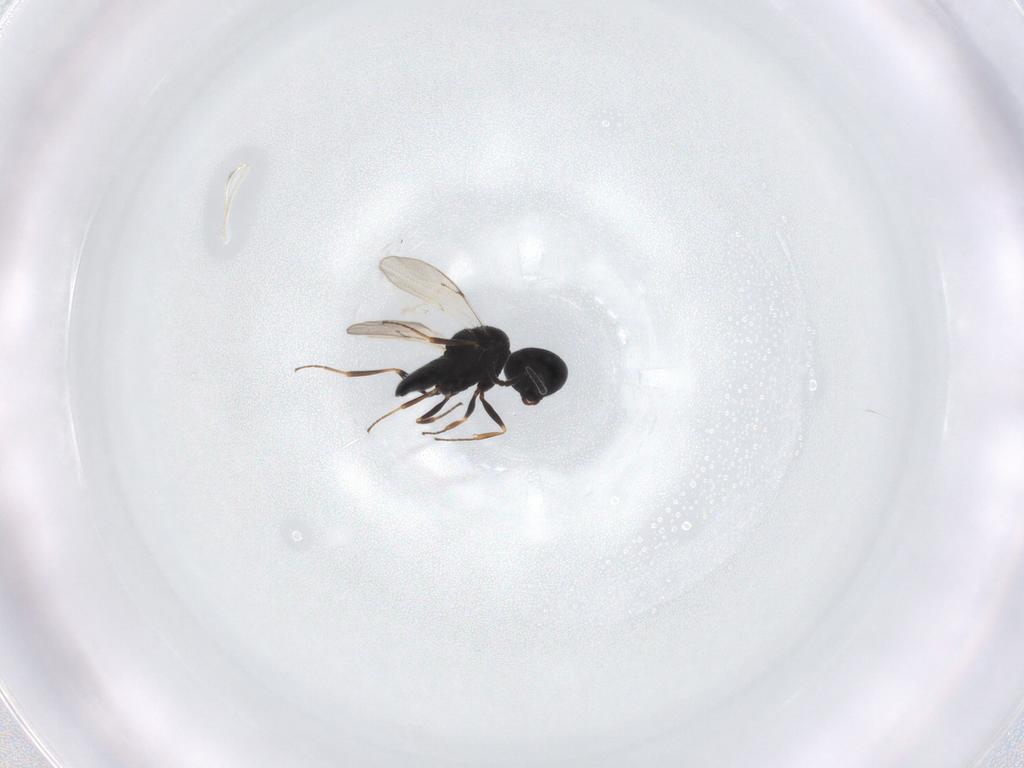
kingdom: Animalia
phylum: Arthropoda
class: Insecta
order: Hymenoptera
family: Scelionidae
